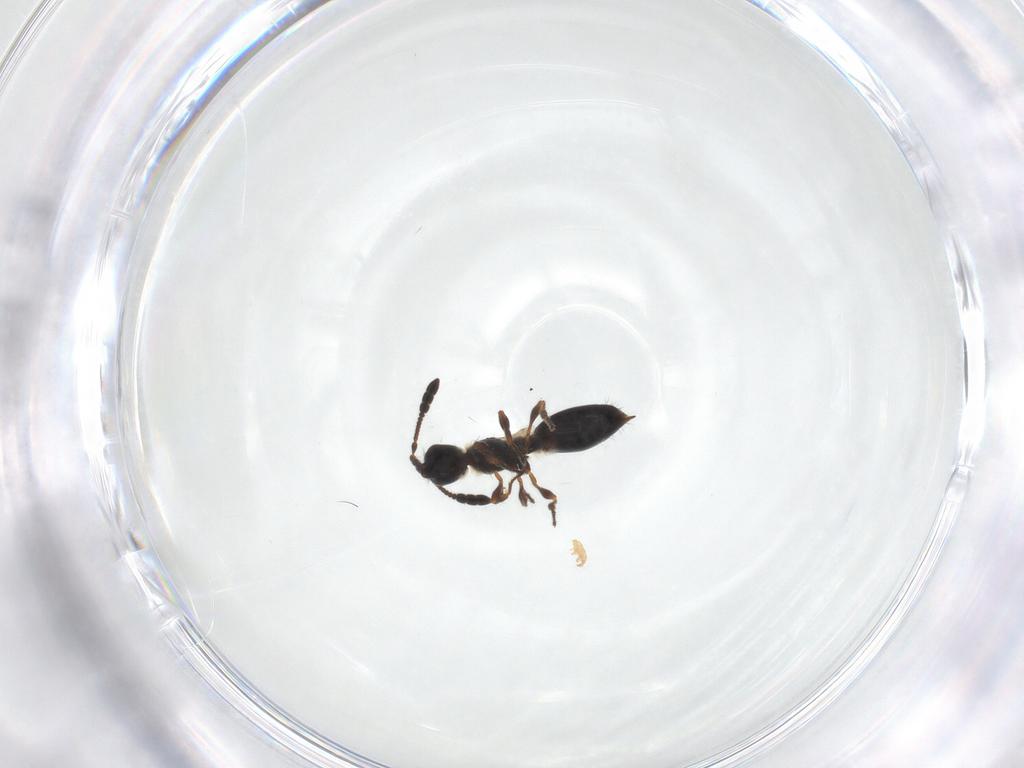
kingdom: Animalia
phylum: Arthropoda
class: Insecta
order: Hymenoptera
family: Diapriidae
